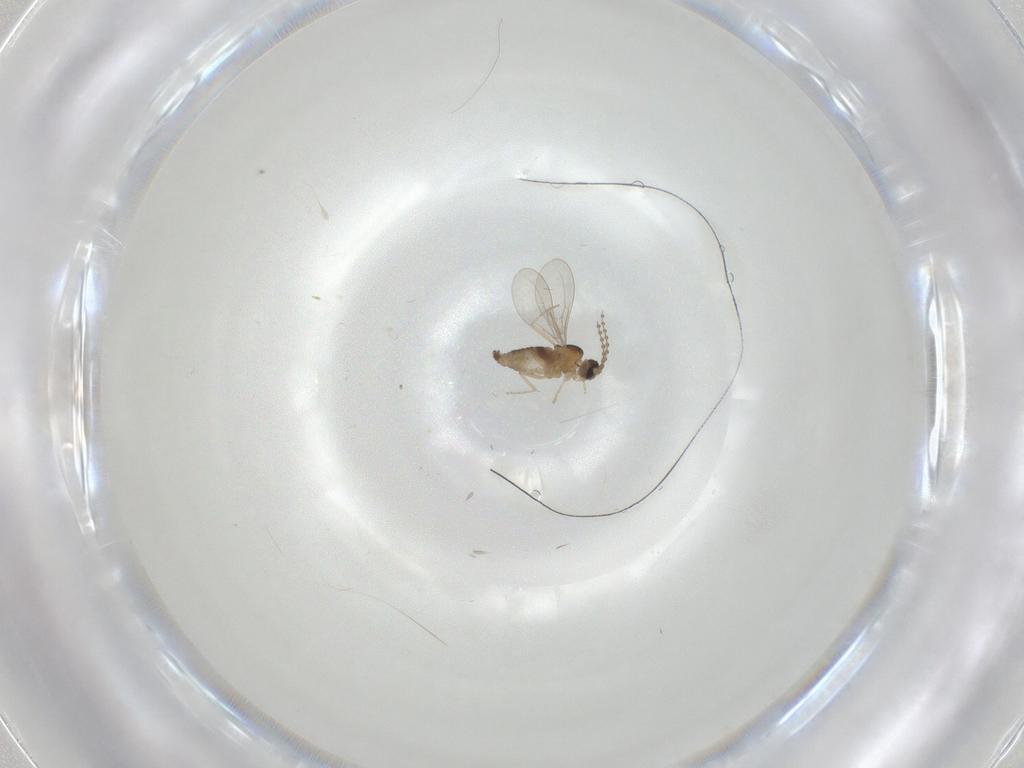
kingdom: Animalia
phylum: Arthropoda
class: Insecta
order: Diptera
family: Cecidomyiidae
